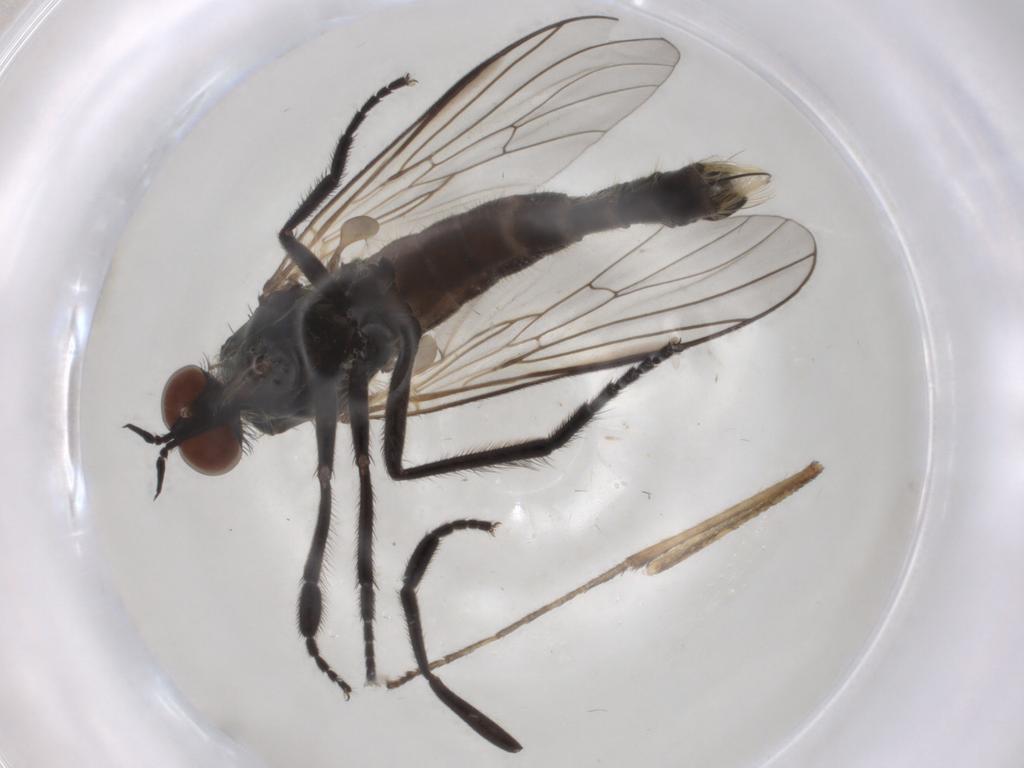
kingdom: Animalia
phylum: Arthropoda
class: Insecta
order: Diptera
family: Empididae
